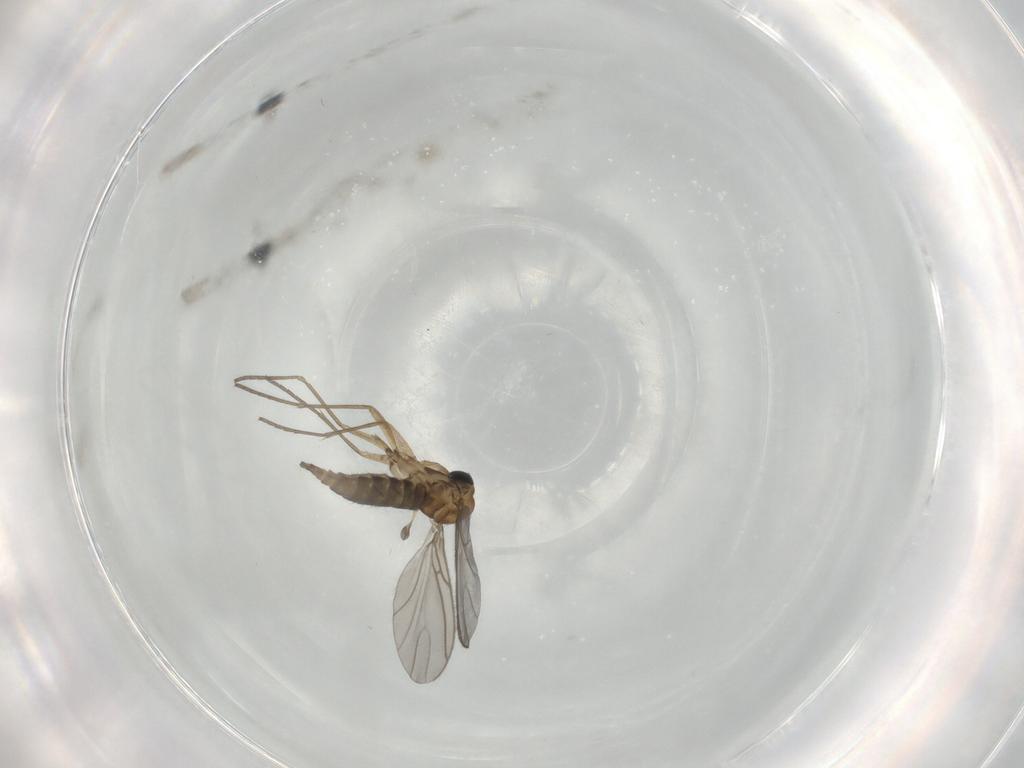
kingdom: Animalia
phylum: Arthropoda
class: Insecta
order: Diptera
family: Sciaridae
